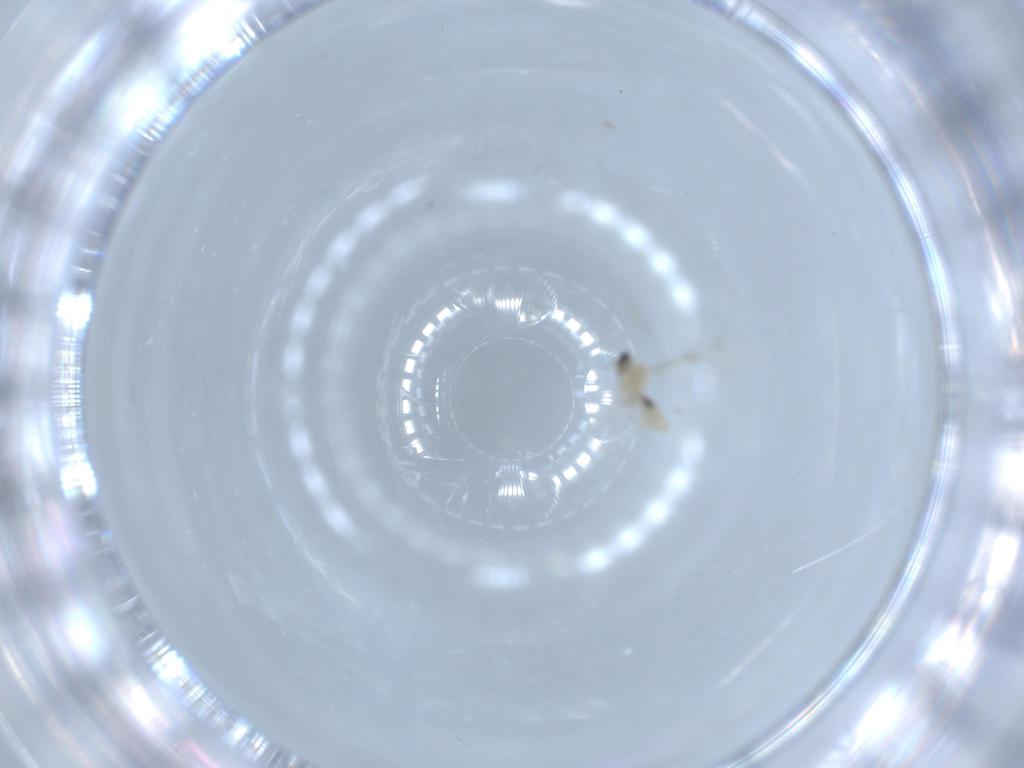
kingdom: Animalia
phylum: Arthropoda
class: Insecta
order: Diptera
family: Cecidomyiidae
